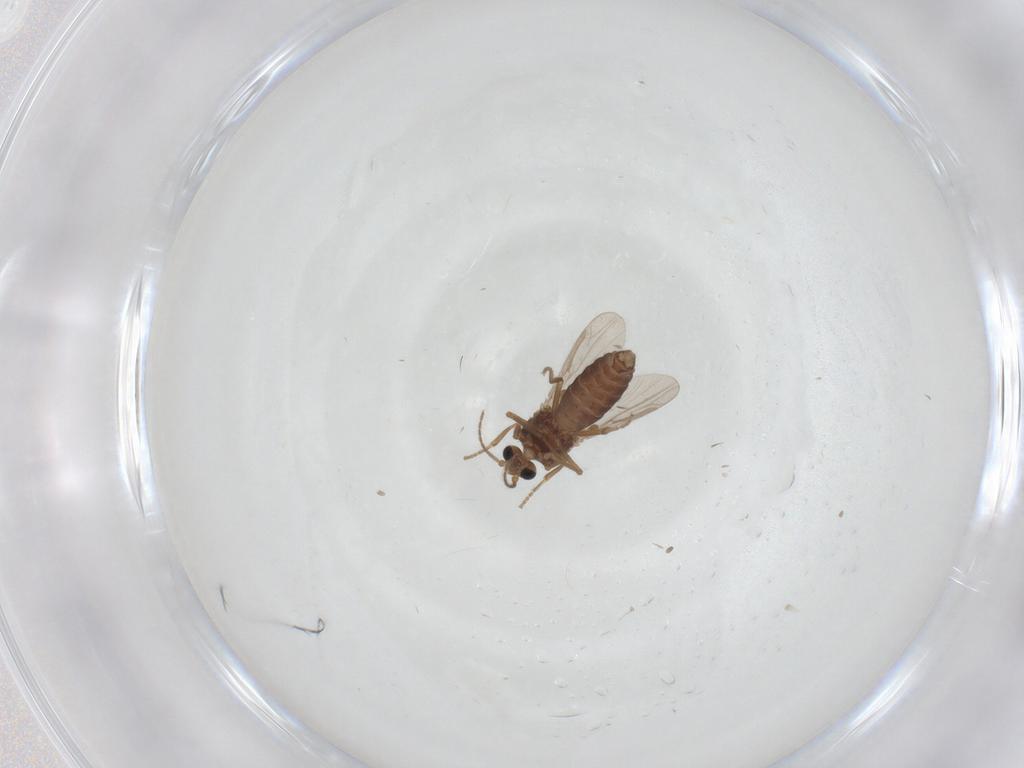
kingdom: Animalia
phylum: Arthropoda
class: Insecta
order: Diptera
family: Ceratopogonidae
